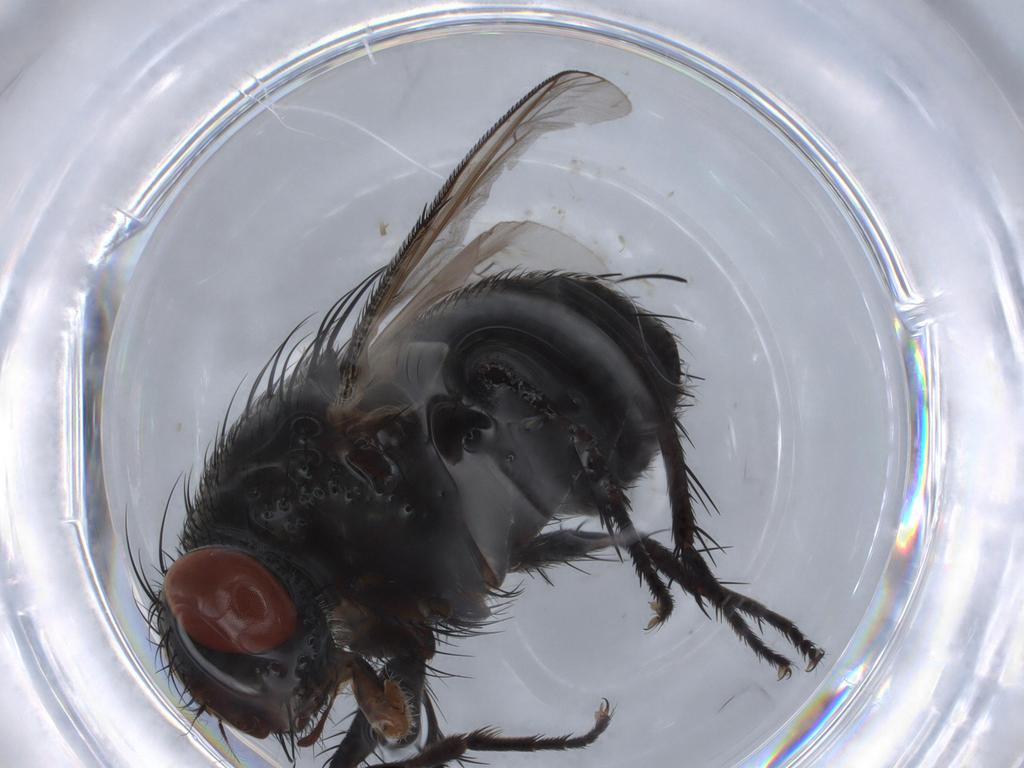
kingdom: Animalia
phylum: Arthropoda
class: Insecta
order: Diptera
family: Sarcophagidae
